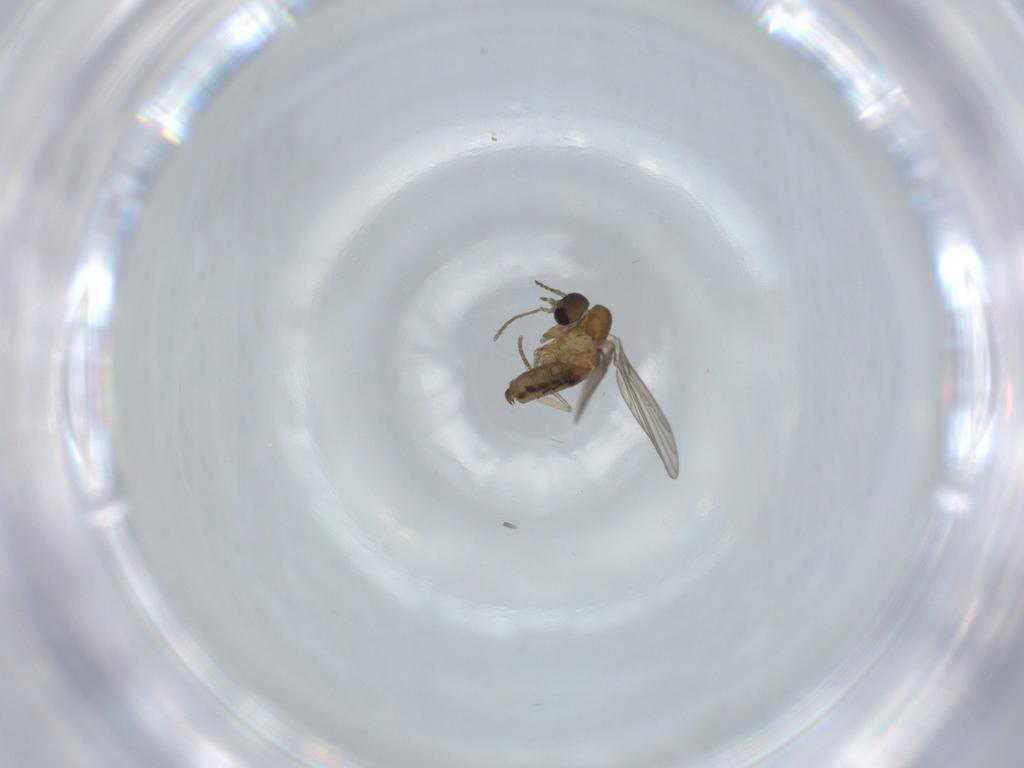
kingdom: Animalia
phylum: Arthropoda
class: Insecta
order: Diptera
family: Psychodidae
